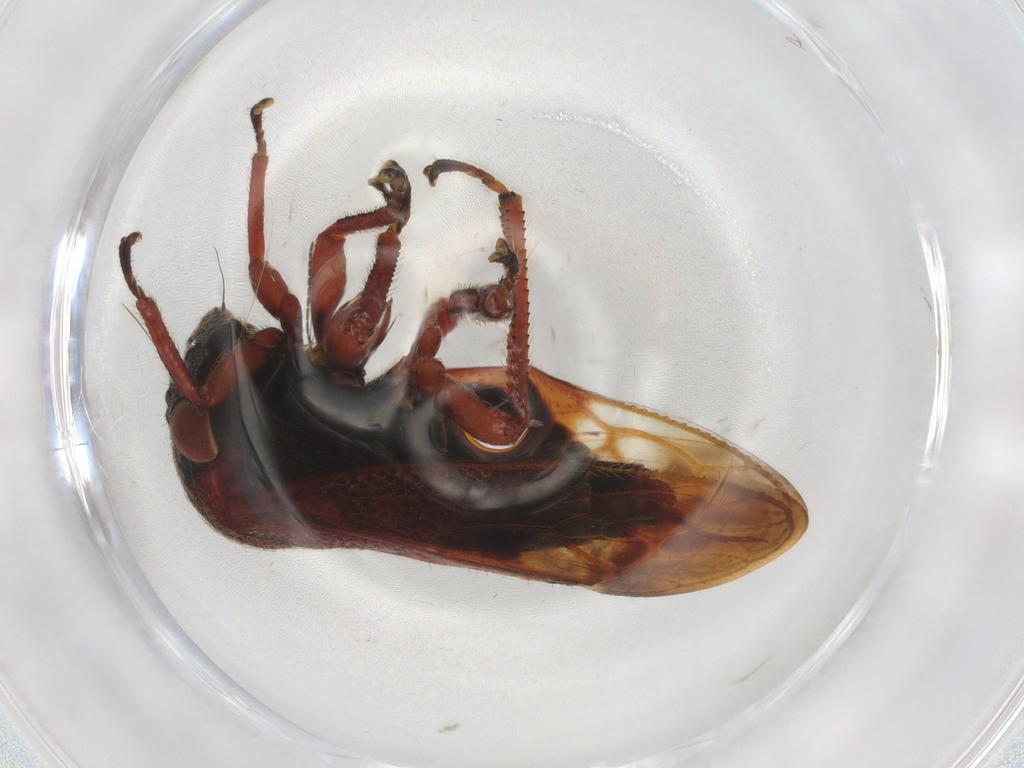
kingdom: Animalia
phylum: Arthropoda
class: Insecta
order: Hemiptera
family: Membracidae
